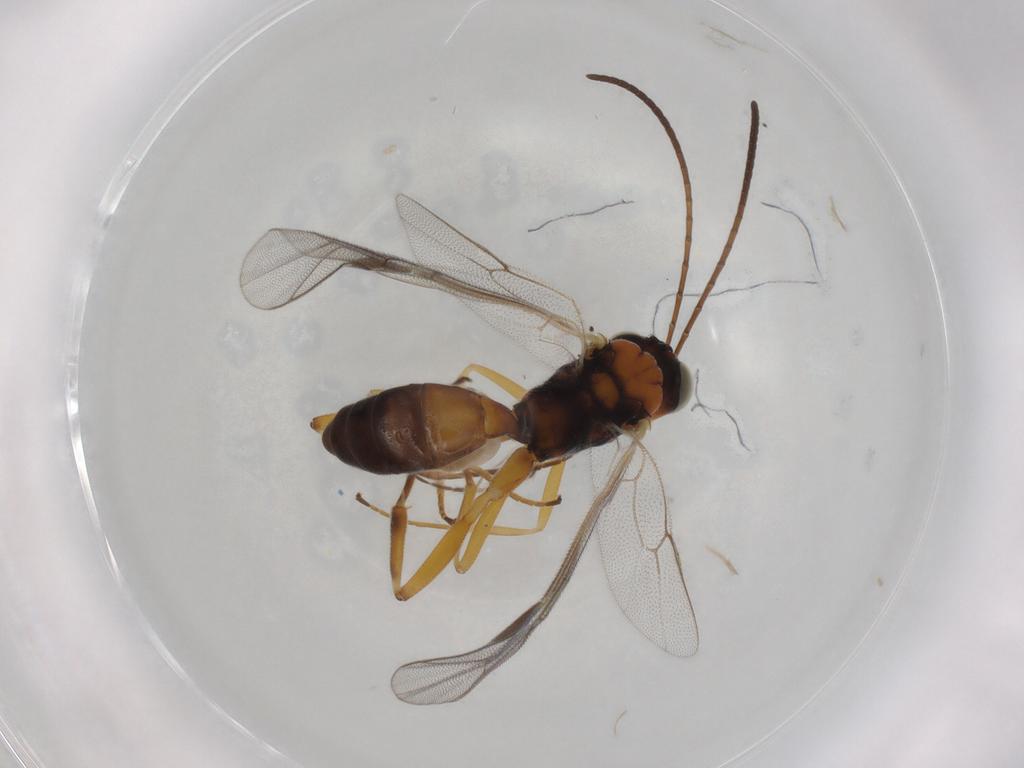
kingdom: Animalia
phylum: Arthropoda
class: Insecta
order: Hymenoptera
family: Ichneumonidae
